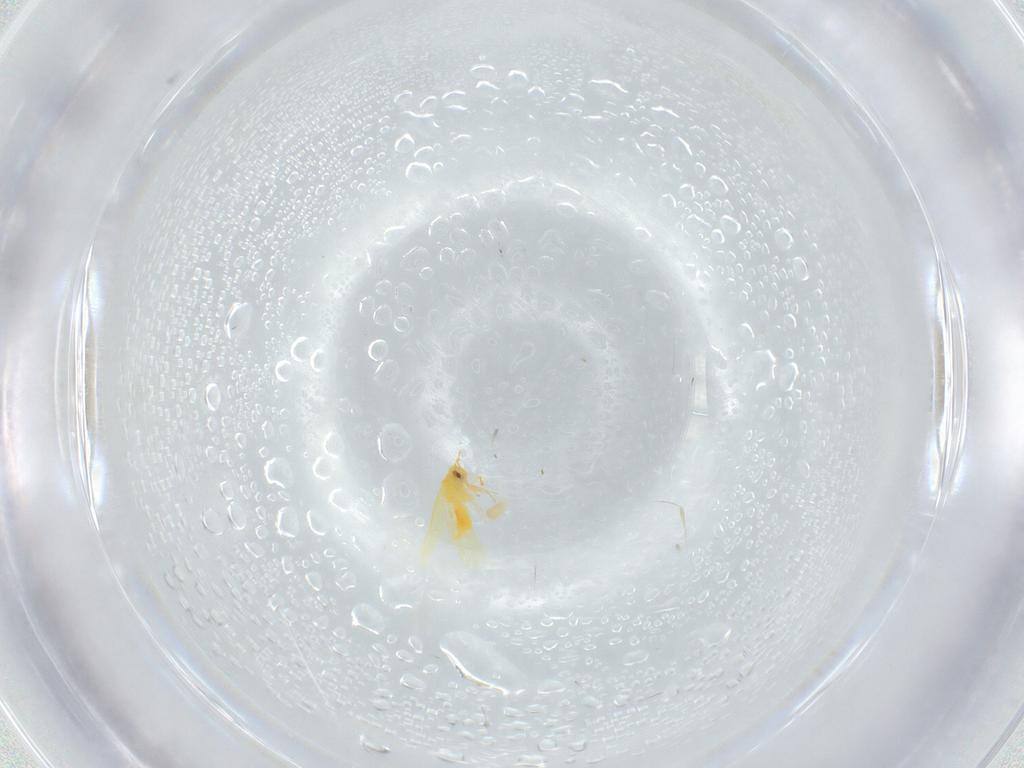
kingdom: Animalia
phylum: Arthropoda
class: Insecta
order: Hemiptera
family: Aleyrodidae
